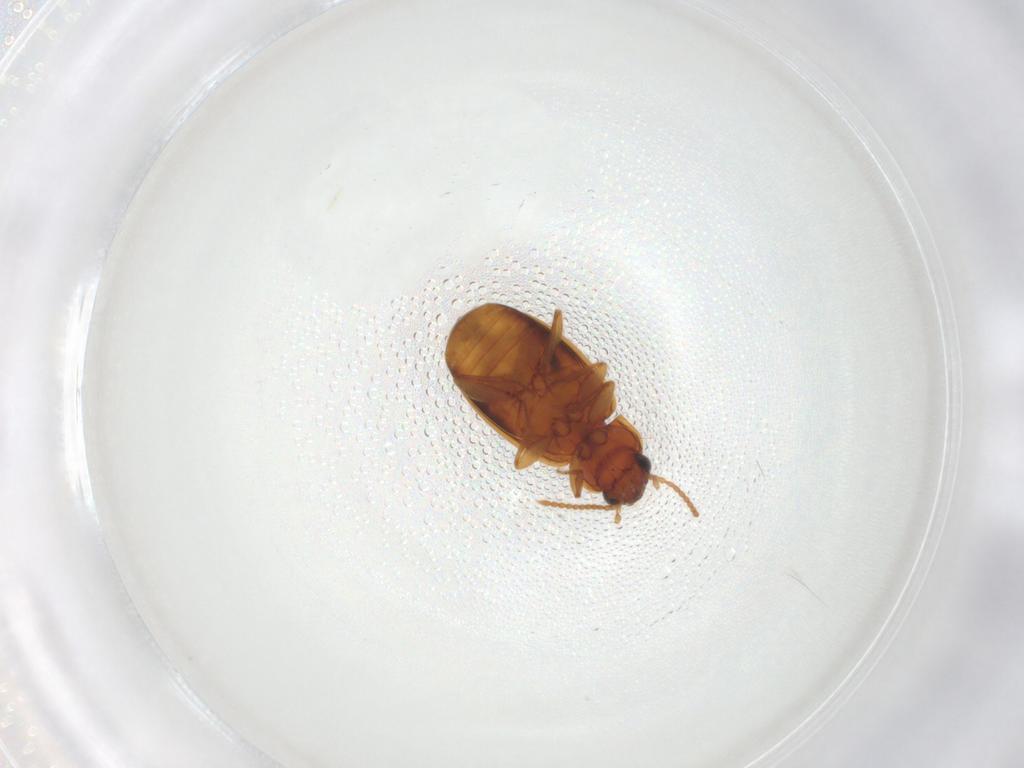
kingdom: Animalia
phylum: Arthropoda
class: Insecta
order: Coleoptera
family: Carabidae
